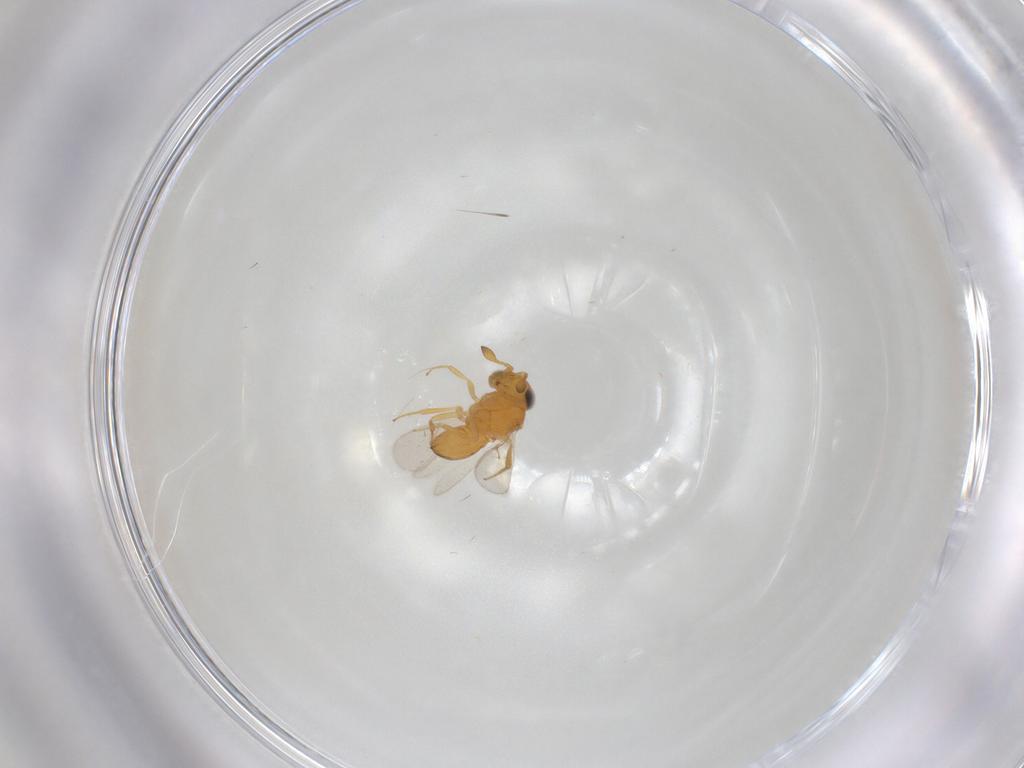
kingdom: Animalia
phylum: Arthropoda
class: Insecta
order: Hymenoptera
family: Scelionidae
